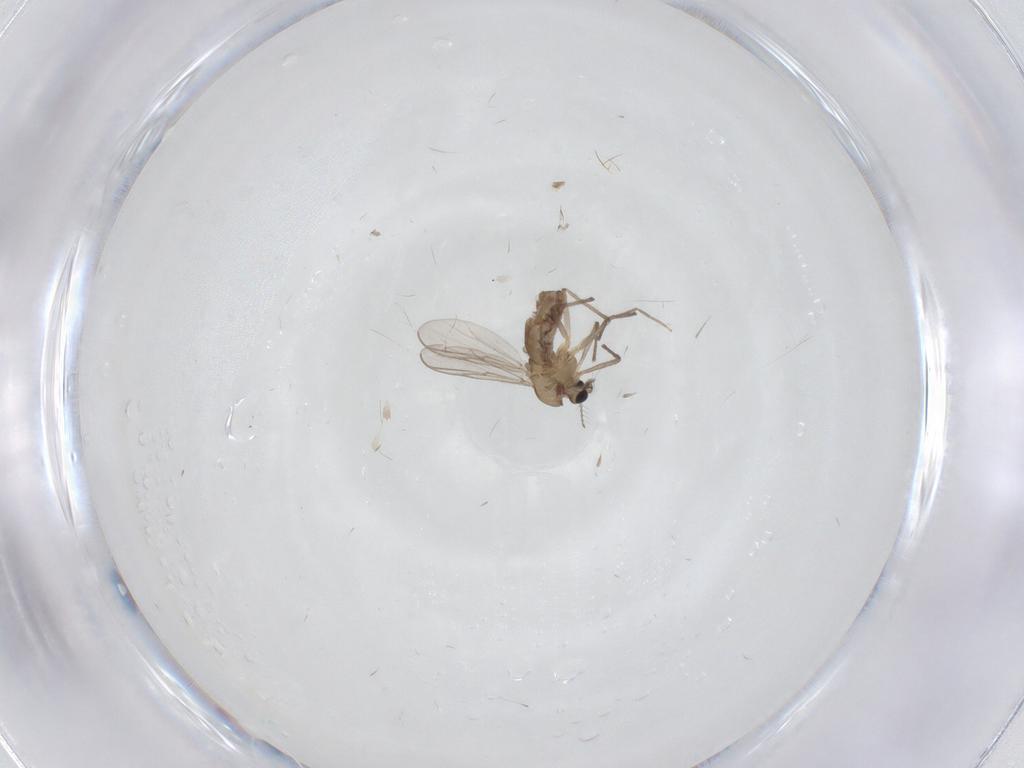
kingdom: Animalia
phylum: Arthropoda
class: Insecta
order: Diptera
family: Chironomidae
